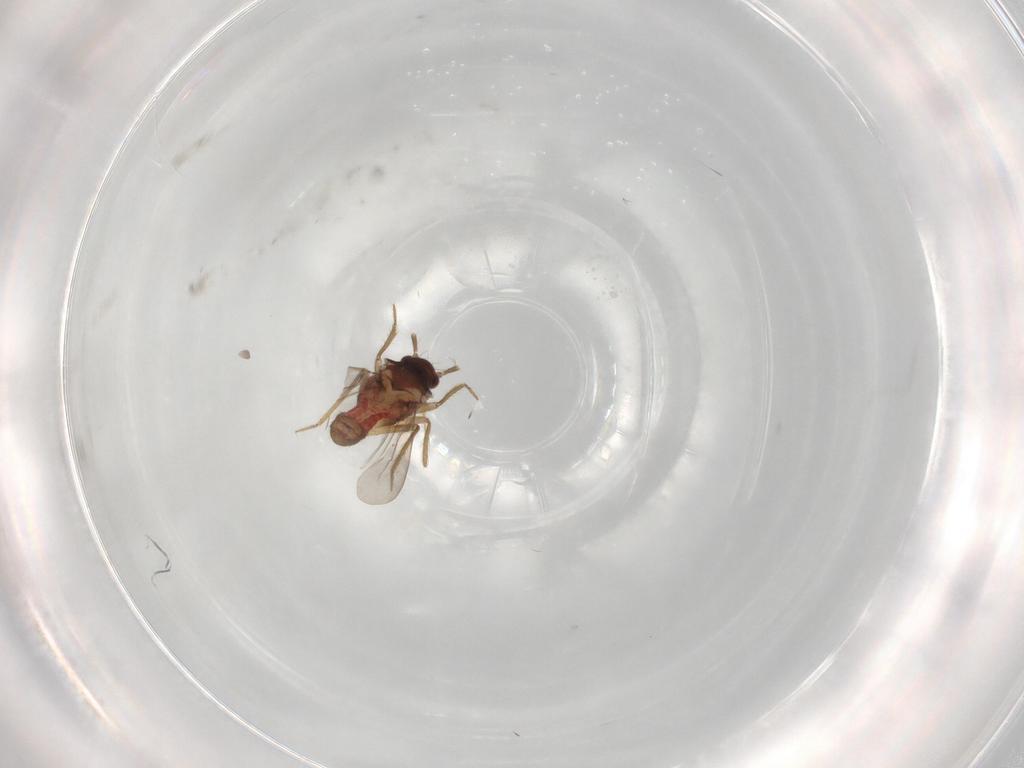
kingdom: Animalia
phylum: Arthropoda
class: Insecta
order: Hemiptera
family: Ceratocombidae
